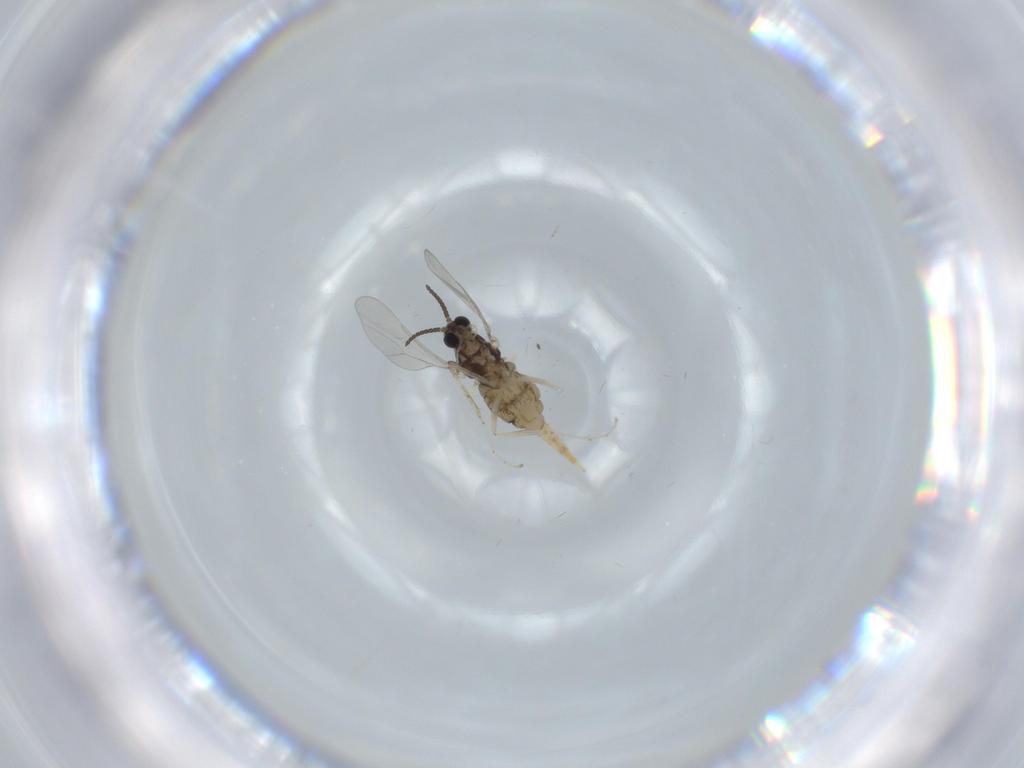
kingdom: Animalia
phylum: Arthropoda
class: Insecta
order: Diptera
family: Cecidomyiidae
